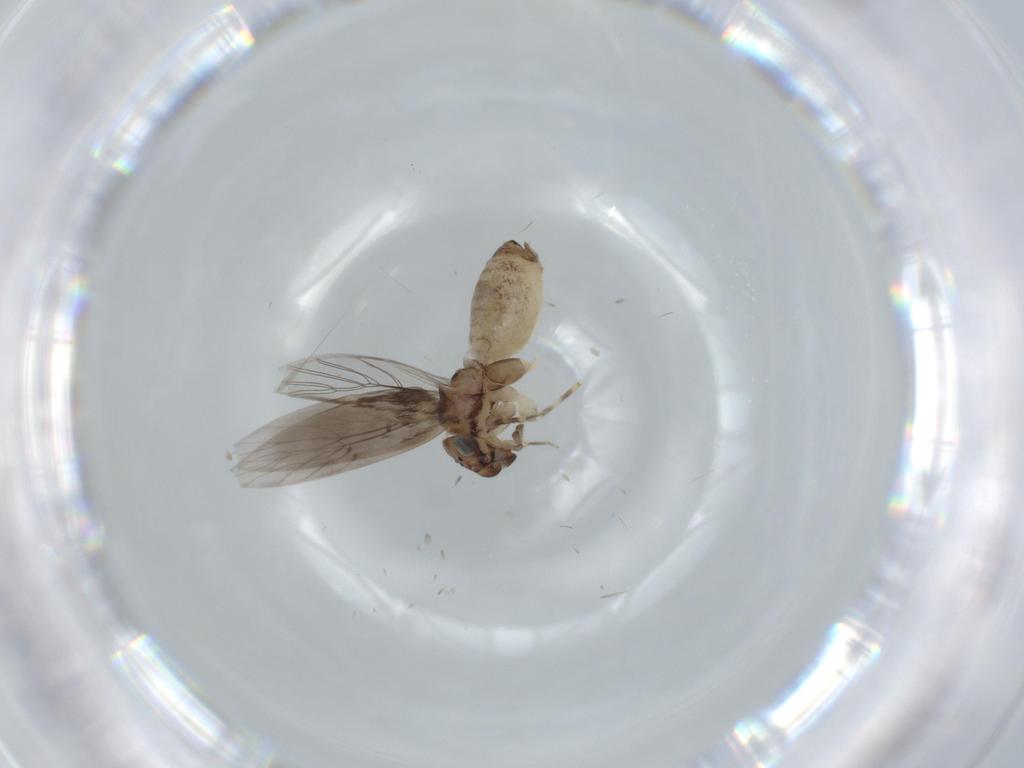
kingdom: Animalia
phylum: Arthropoda
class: Insecta
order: Psocodea
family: Lepidopsocidae
